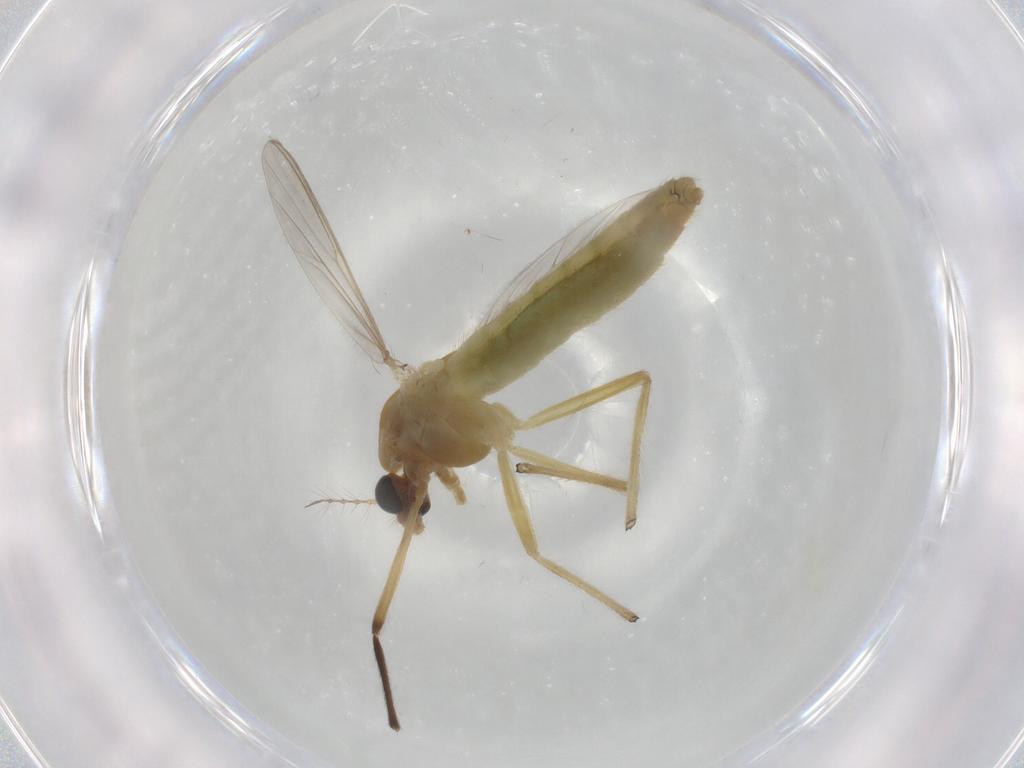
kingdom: Animalia
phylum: Arthropoda
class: Insecta
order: Diptera
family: Chironomidae
